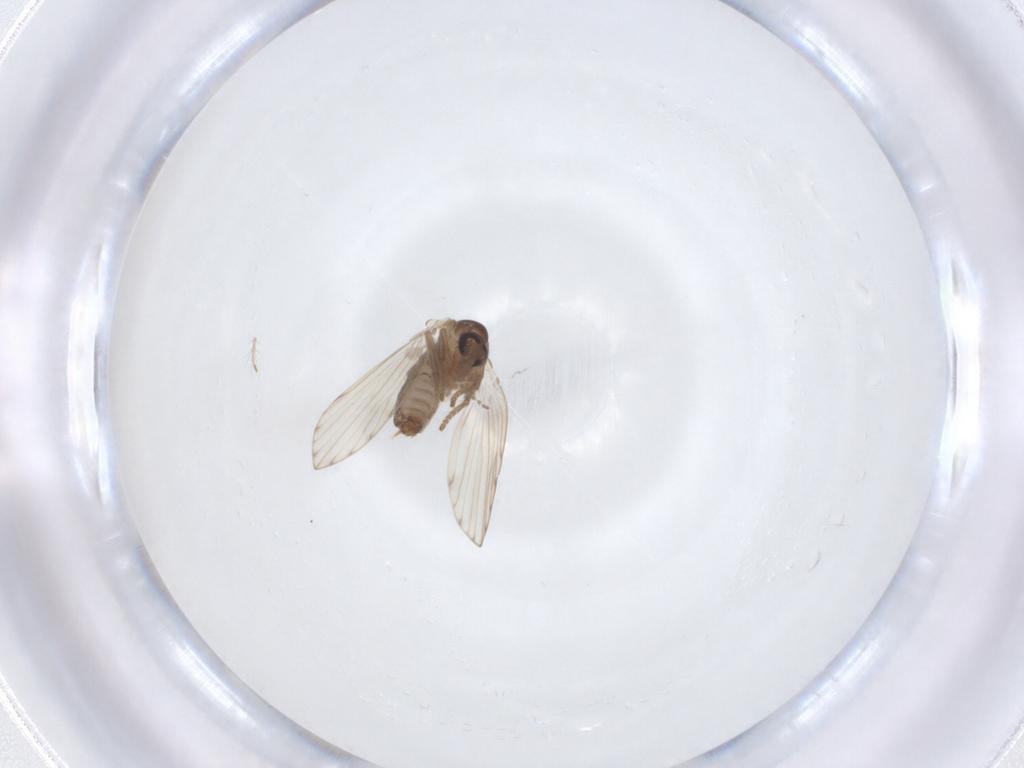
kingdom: Animalia
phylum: Arthropoda
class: Insecta
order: Diptera
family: Psychodidae
